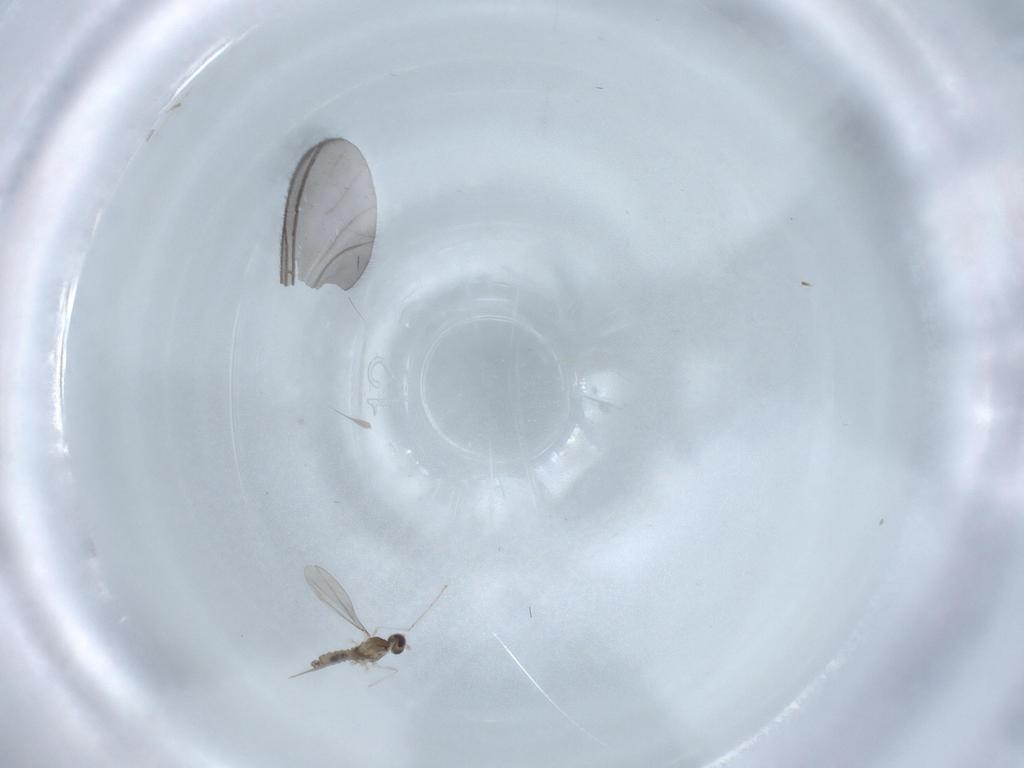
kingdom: Animalia
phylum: Arthropoda
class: Insecta
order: Diptera
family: Cecidomyiidae
